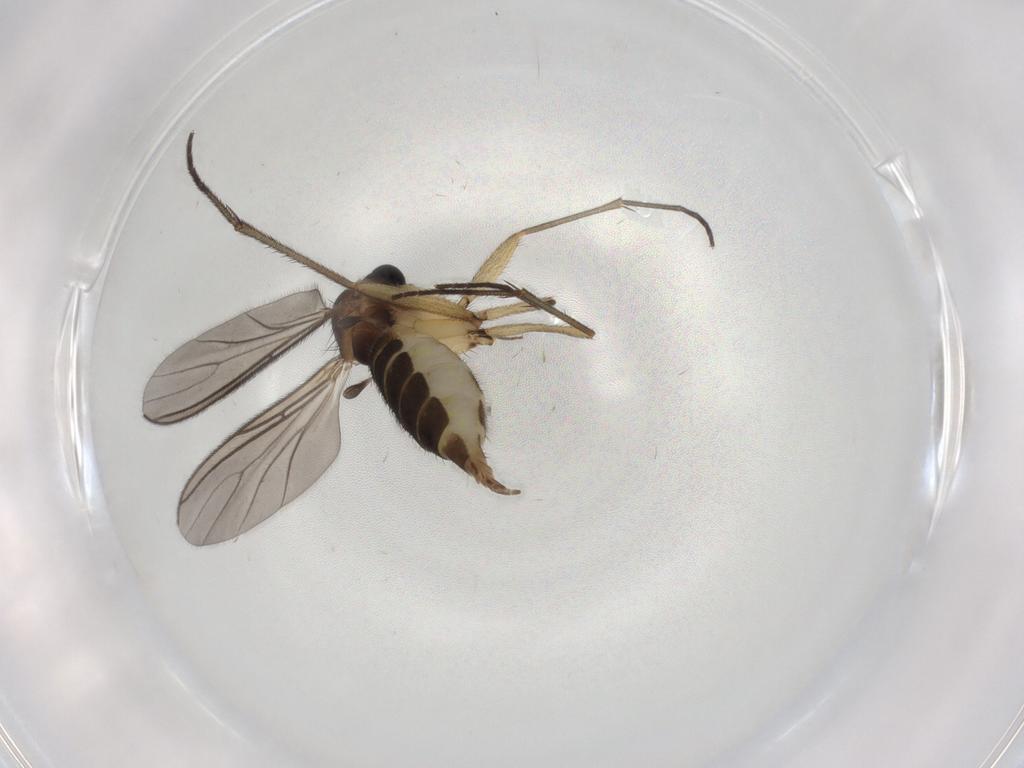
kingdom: Animalia
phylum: Arthropoda
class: Insecta
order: Diptera
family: Sciaridae
